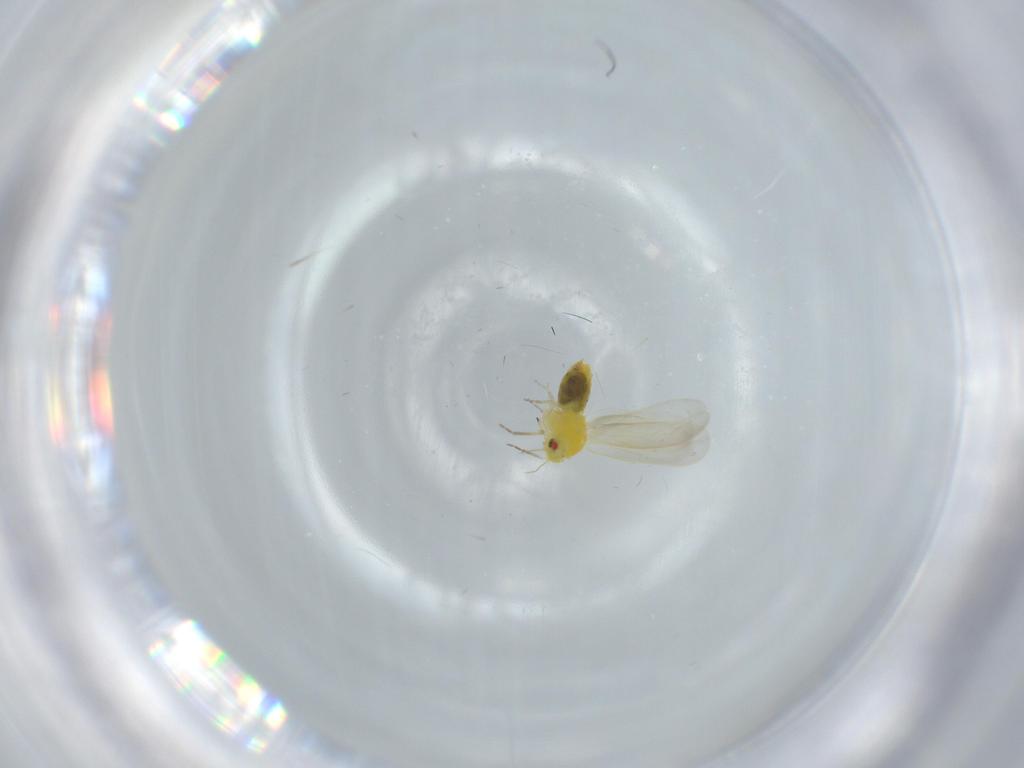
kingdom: Animalia
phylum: Arthropoda
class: Insecta
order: Hemiptera
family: Aleyrodidae
